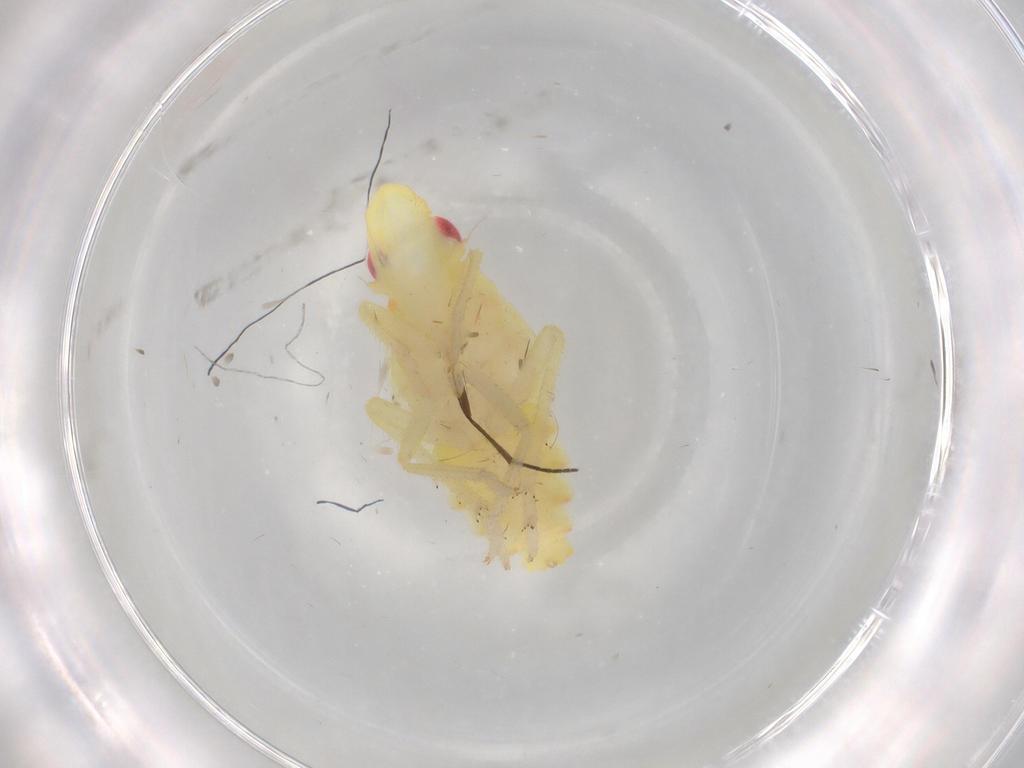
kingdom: Animalia
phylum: Arthropoda
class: Insecta
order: Hemiptera
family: Tropiduchidae
